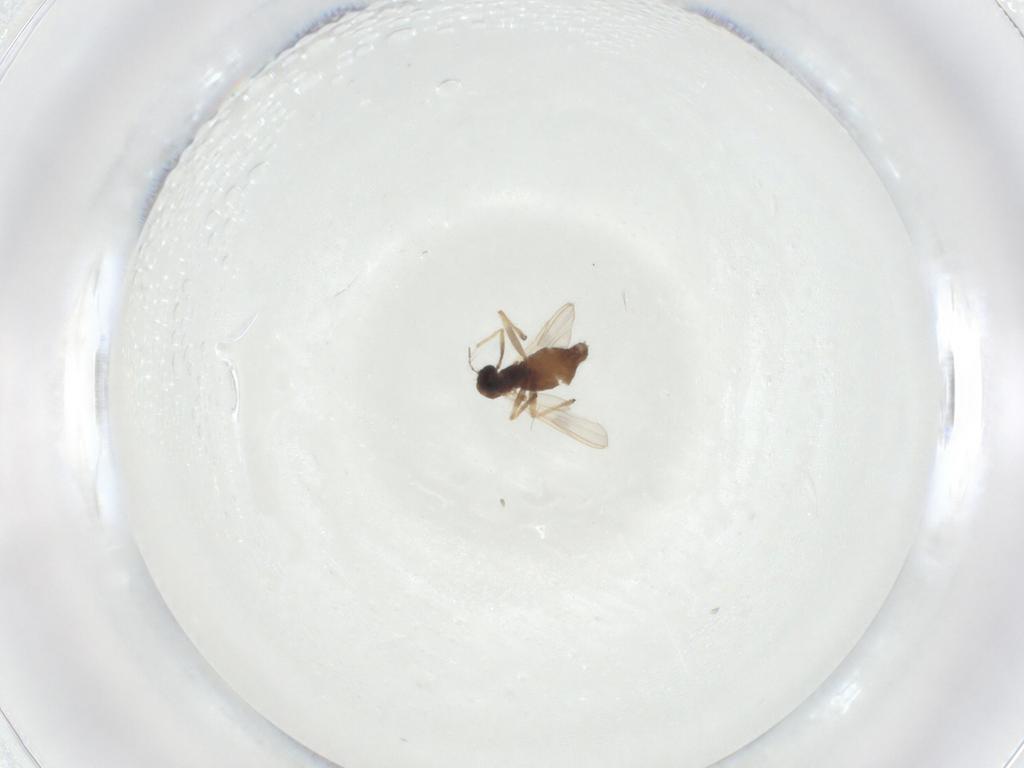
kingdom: Animalia
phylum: Arthropoda
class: Insecta
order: Diptera
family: Chironomidae
